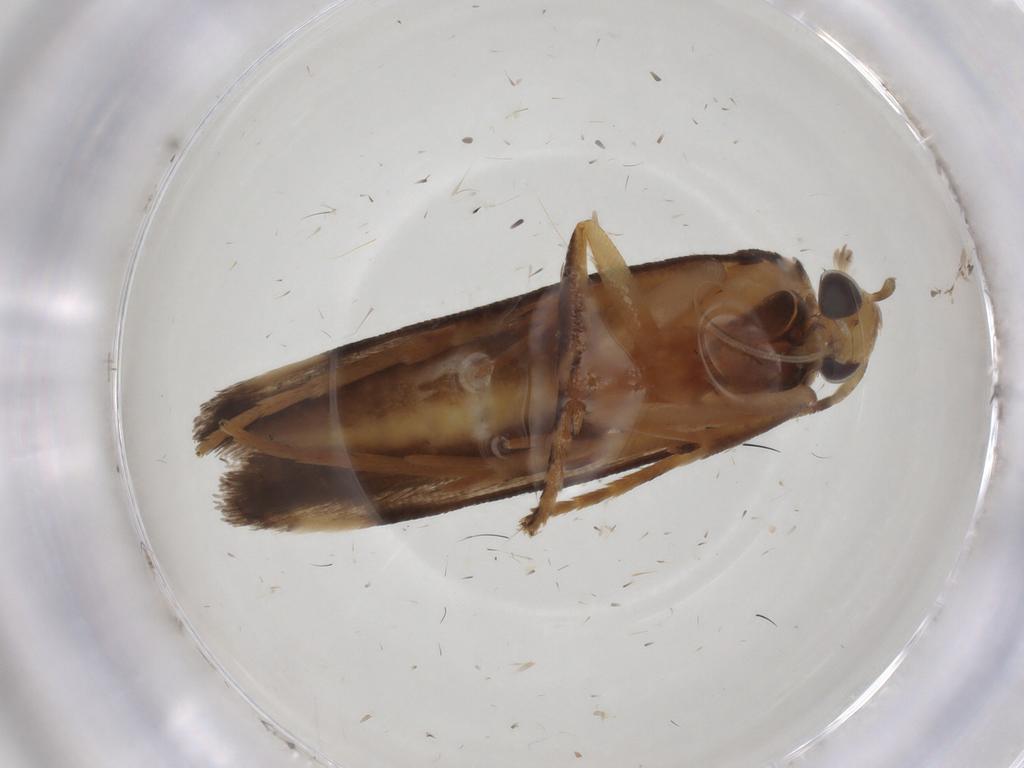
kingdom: Animalia
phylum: Arthropoda
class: Insecta
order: Lepidoptera
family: Gelechiidae
